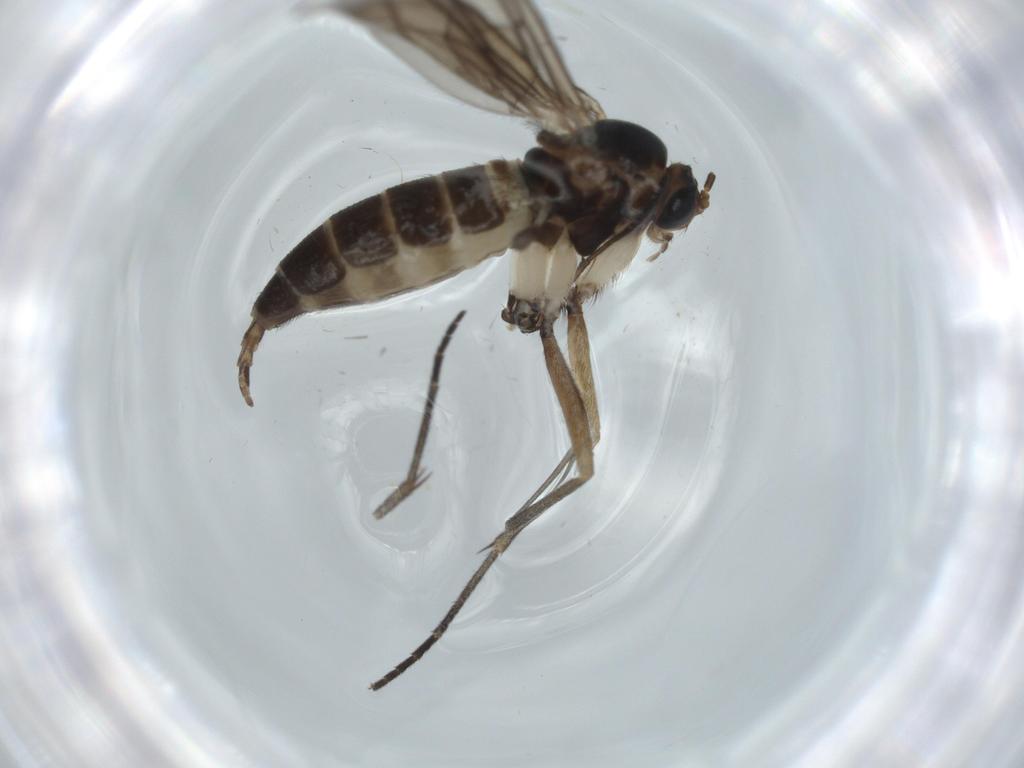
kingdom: Animalia
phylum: Arthropoda
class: Insecta
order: Diptera
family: Sciaridae
